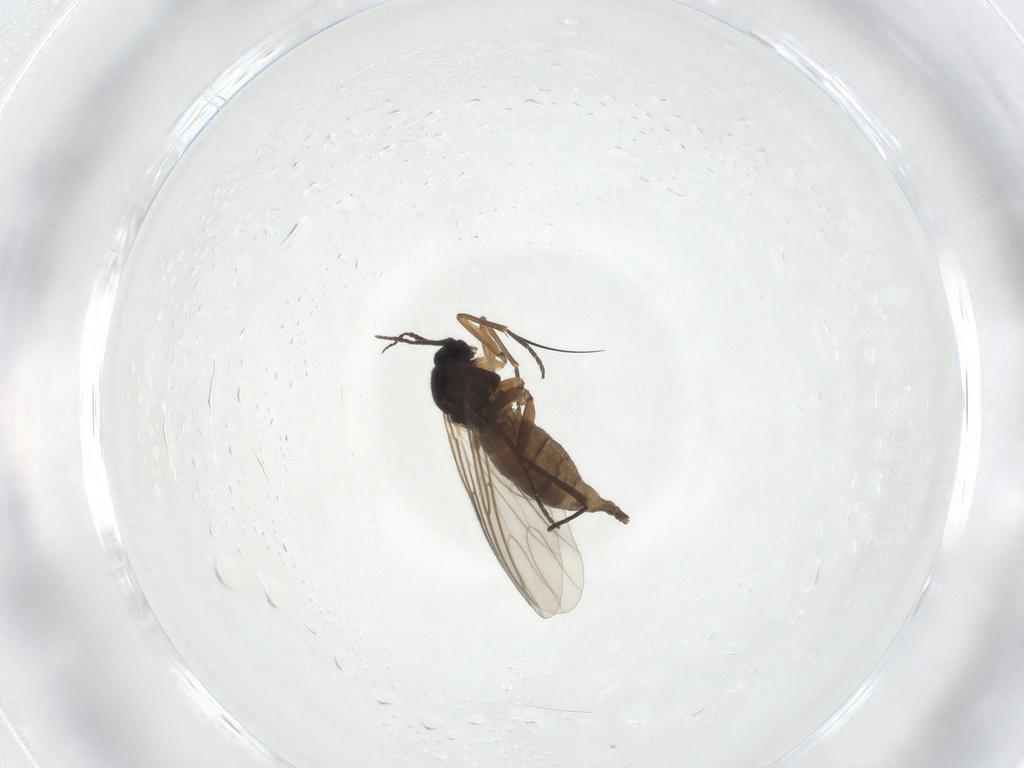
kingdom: Animalia
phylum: Arthropoda
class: Insecta
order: Diptera
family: Sciaridae
